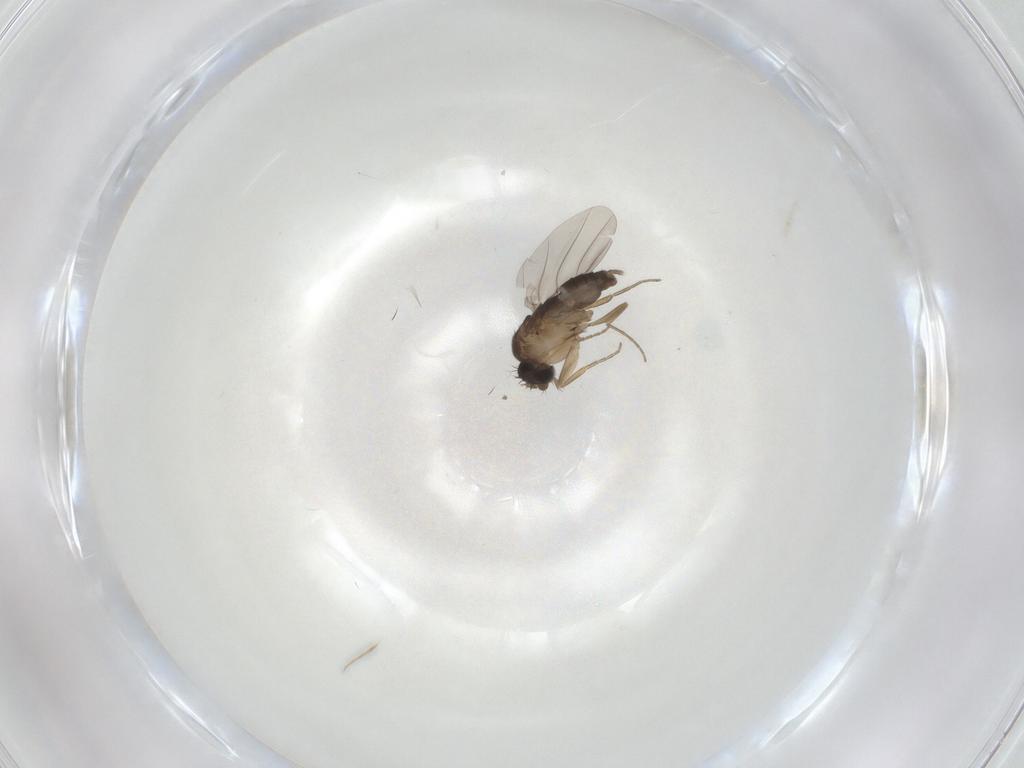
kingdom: Animalia
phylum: Arthropoda
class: Insecta
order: Diptera
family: Phoridae
